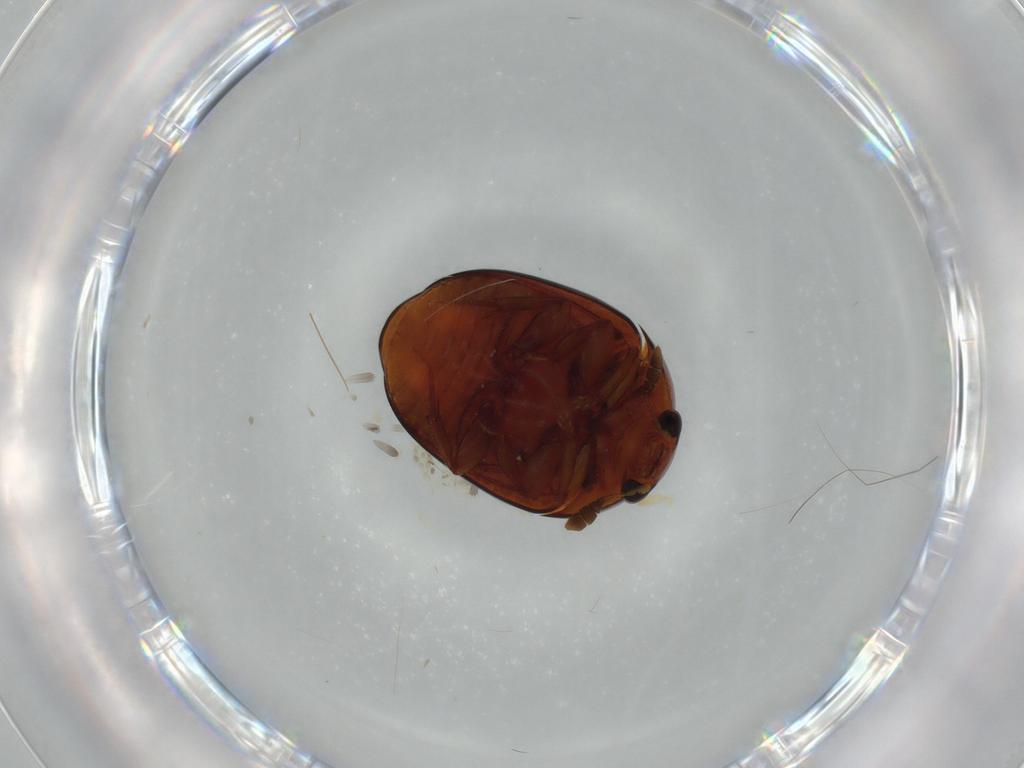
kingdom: Animalia
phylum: Arthropoda
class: Insecta
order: Coleoptera
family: Nitidulidae
